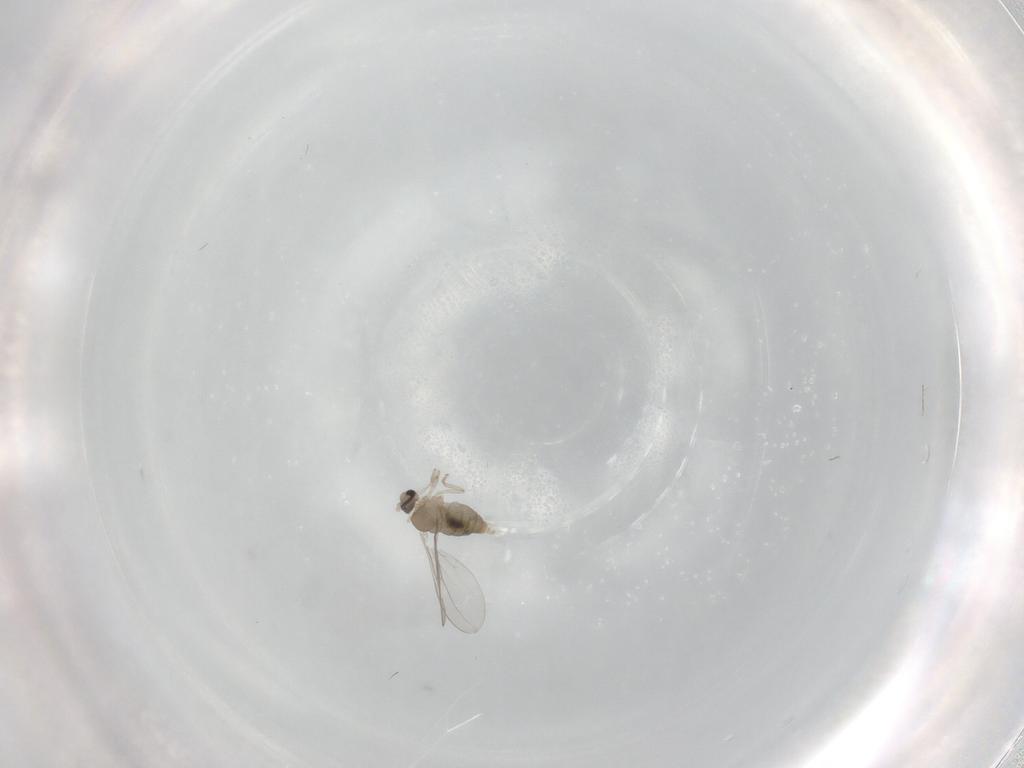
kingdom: Animalia
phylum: Arthropoda
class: Insecta
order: Diptera
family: Cecidomyiidae
